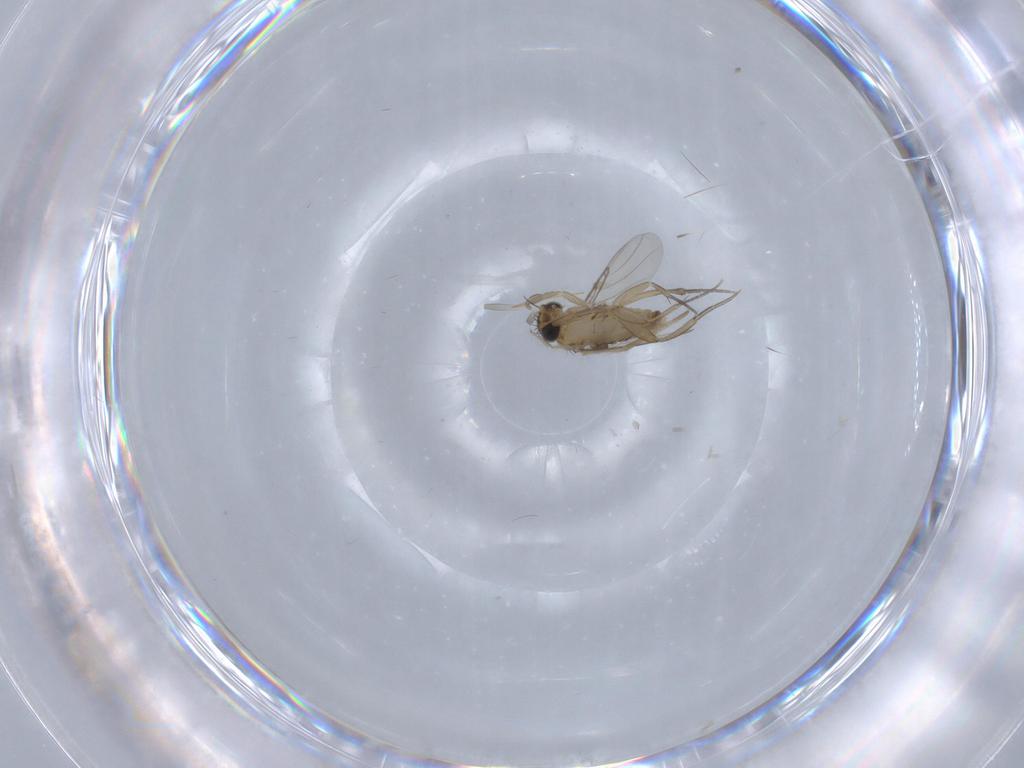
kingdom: Animalia
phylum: Arthropoda
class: Insecta
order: Diptera
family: Phoridae
